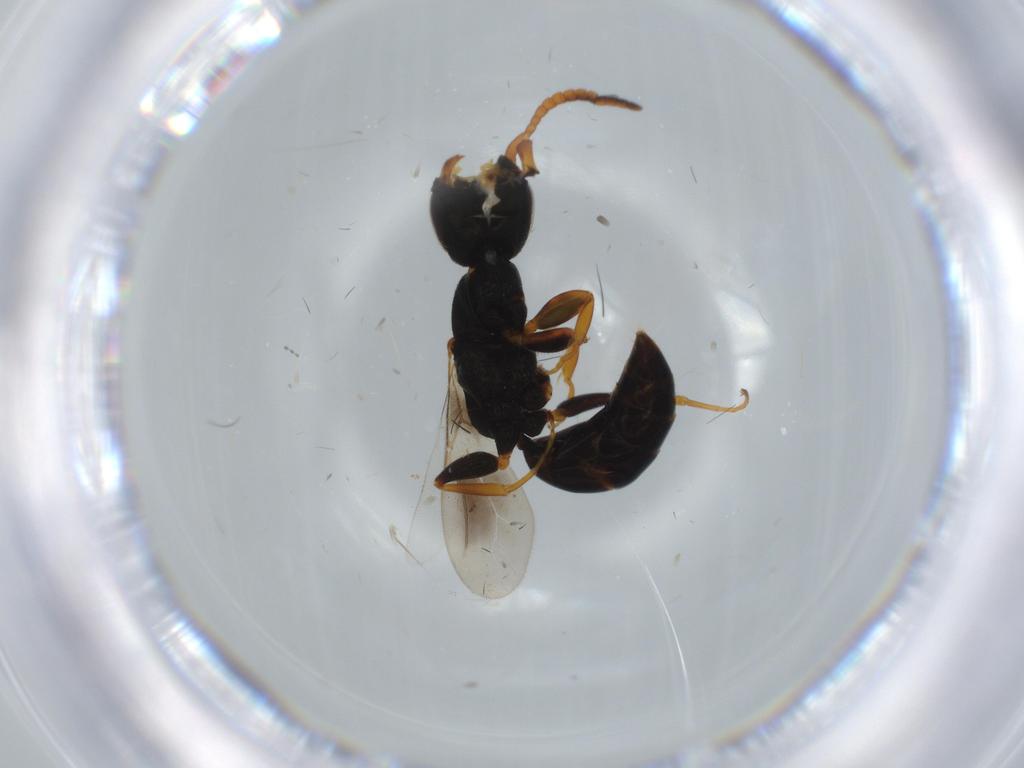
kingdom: Animalia
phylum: Arthropoda
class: Insecta
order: Hymenoptera
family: Bethylidae
